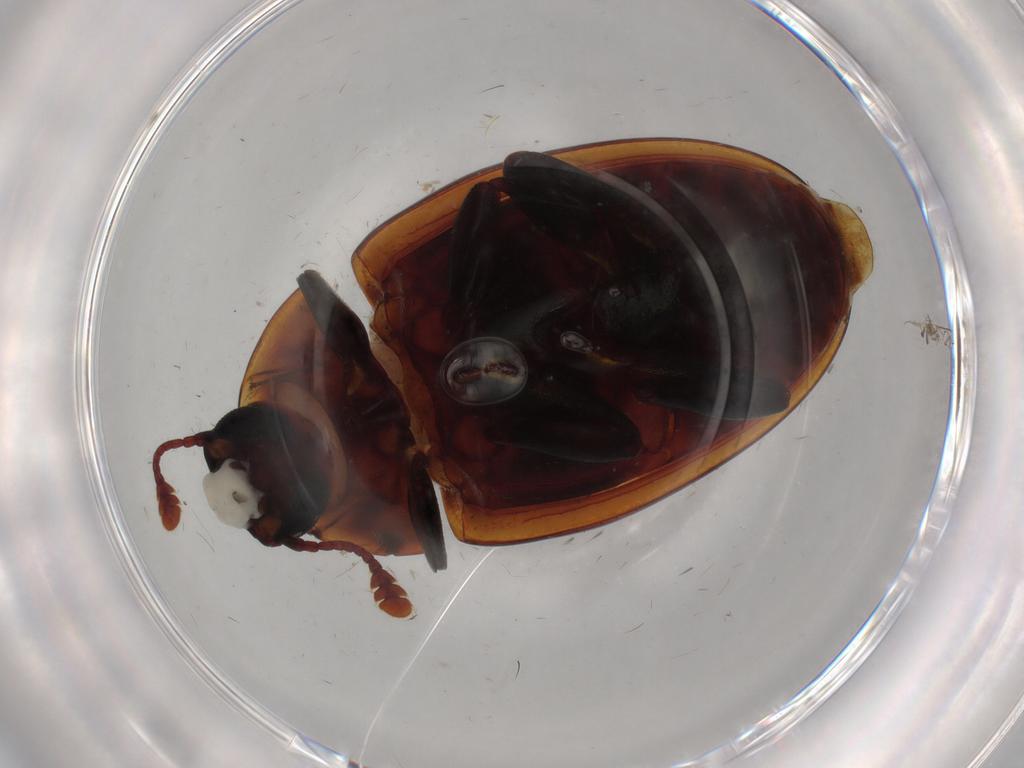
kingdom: Animalia
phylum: Arthropoda
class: Insecta
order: Coleoptera
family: Zopheridae
